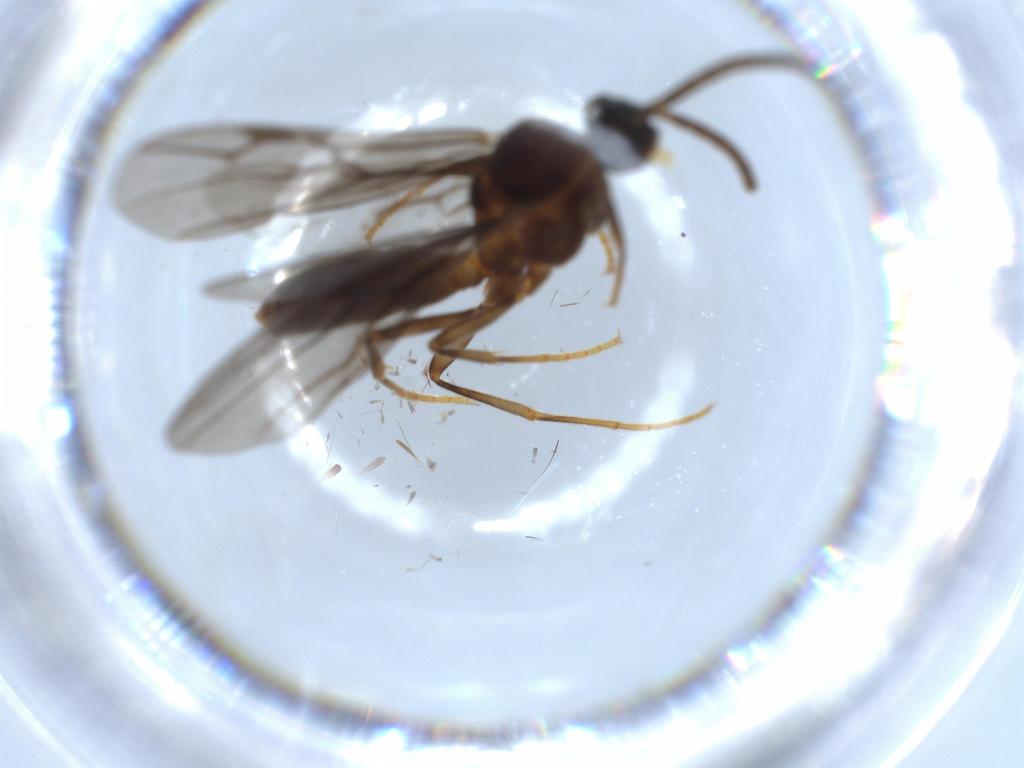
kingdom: Animalia
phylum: Arthropoda
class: Insecta
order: Hymenoptera
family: Formicidae
